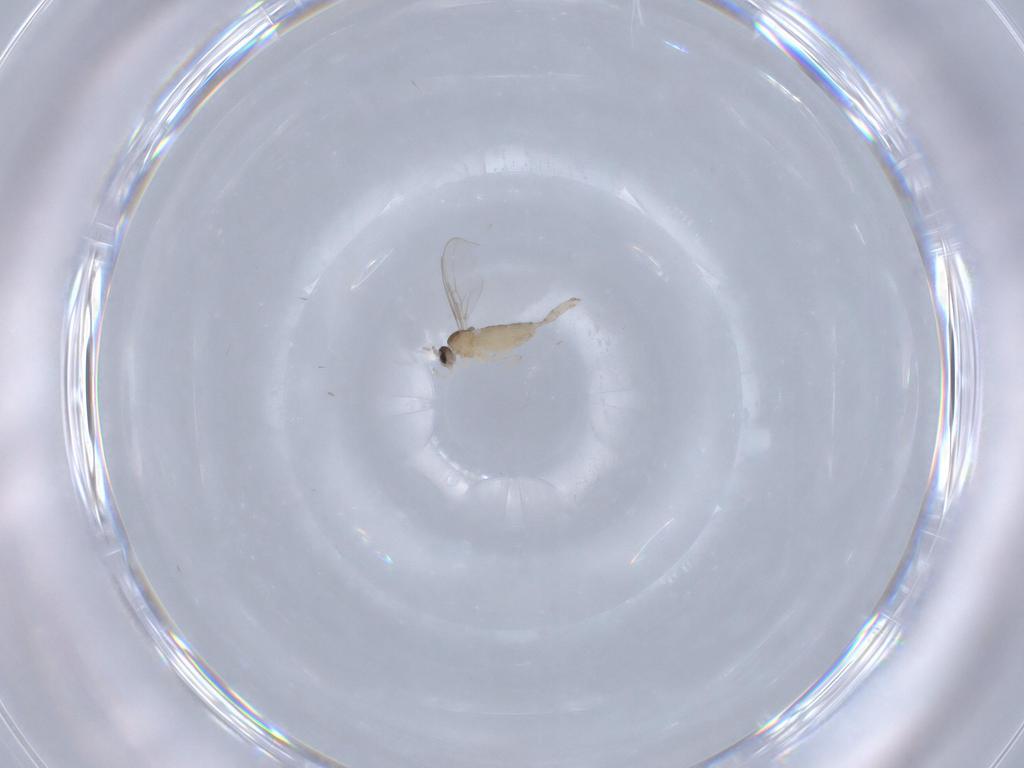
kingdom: Animalia
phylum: Arthropoda
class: Insecta
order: Diptera
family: Cecidomyiidae
